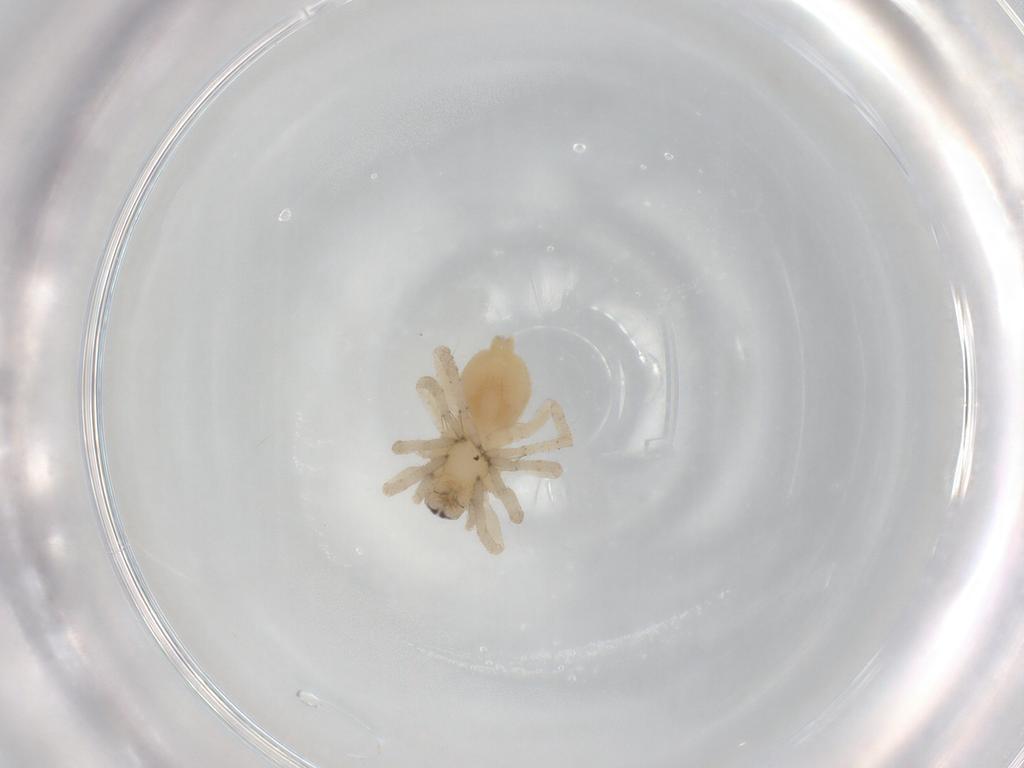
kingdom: Animalia
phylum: Arthropoda
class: Arachnida
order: Araneae
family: Clubionidae
